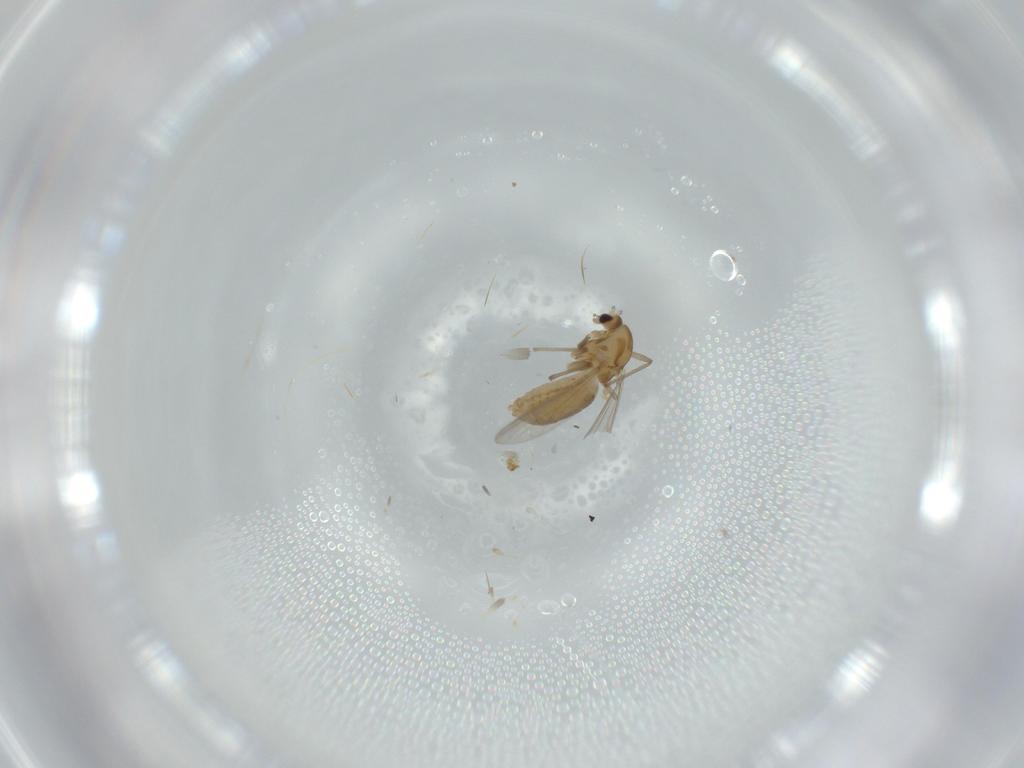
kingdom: Animalia
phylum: Arthropoda
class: Insecta
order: Diptera
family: Chironomidae
